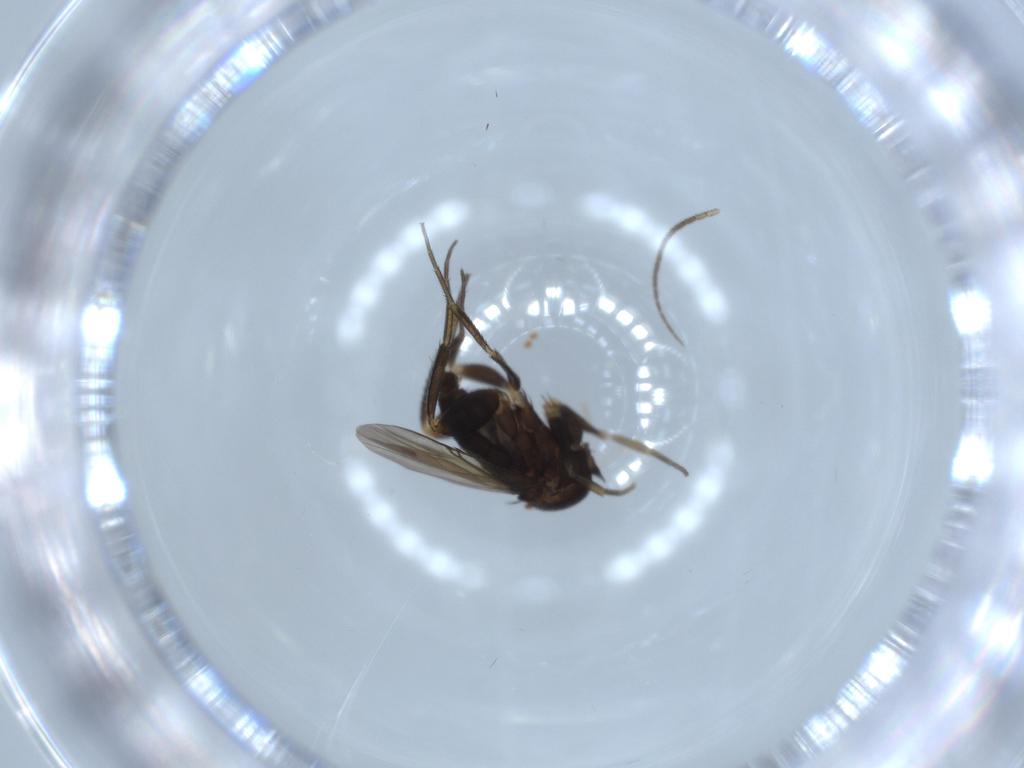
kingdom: Animalia
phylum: Arthropoda
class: Insecta
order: Diptera
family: Phoridae
